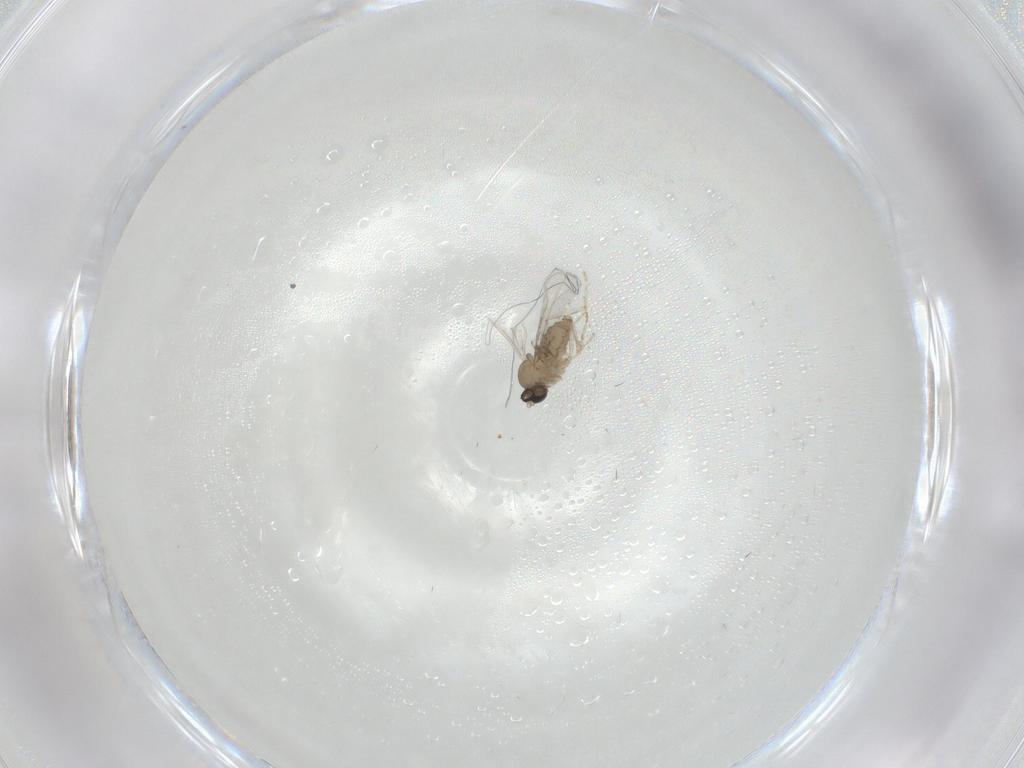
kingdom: Animalia
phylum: Arthropoda
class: Insecta
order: Diptera
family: Cecidomyiidae
